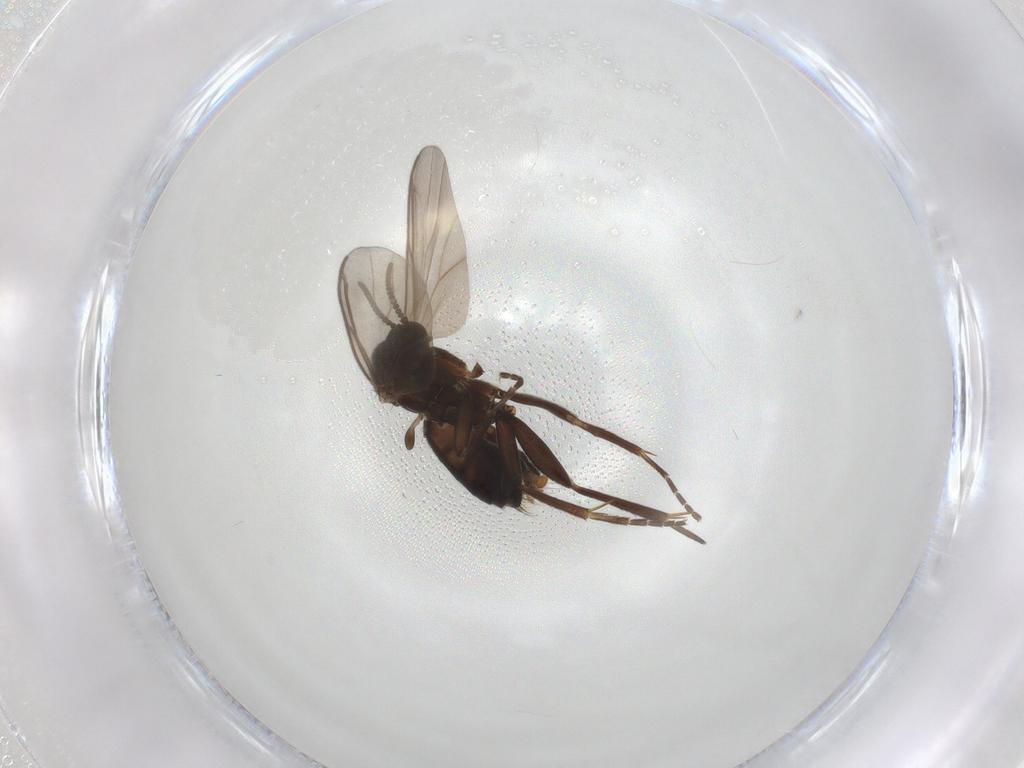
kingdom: Animalia
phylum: Arthropoda
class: Insecta
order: Diptera
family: Mycetophilidae
